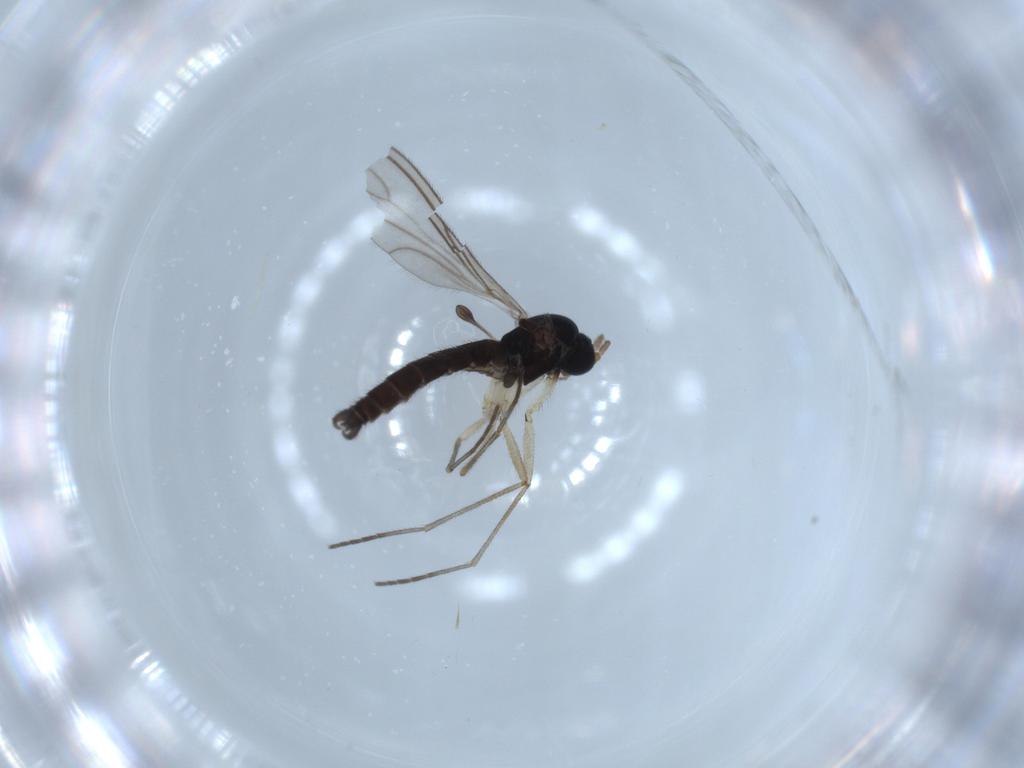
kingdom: Animalia
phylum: Arthropoda
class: Insecta
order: Diptera
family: Sciaridae
